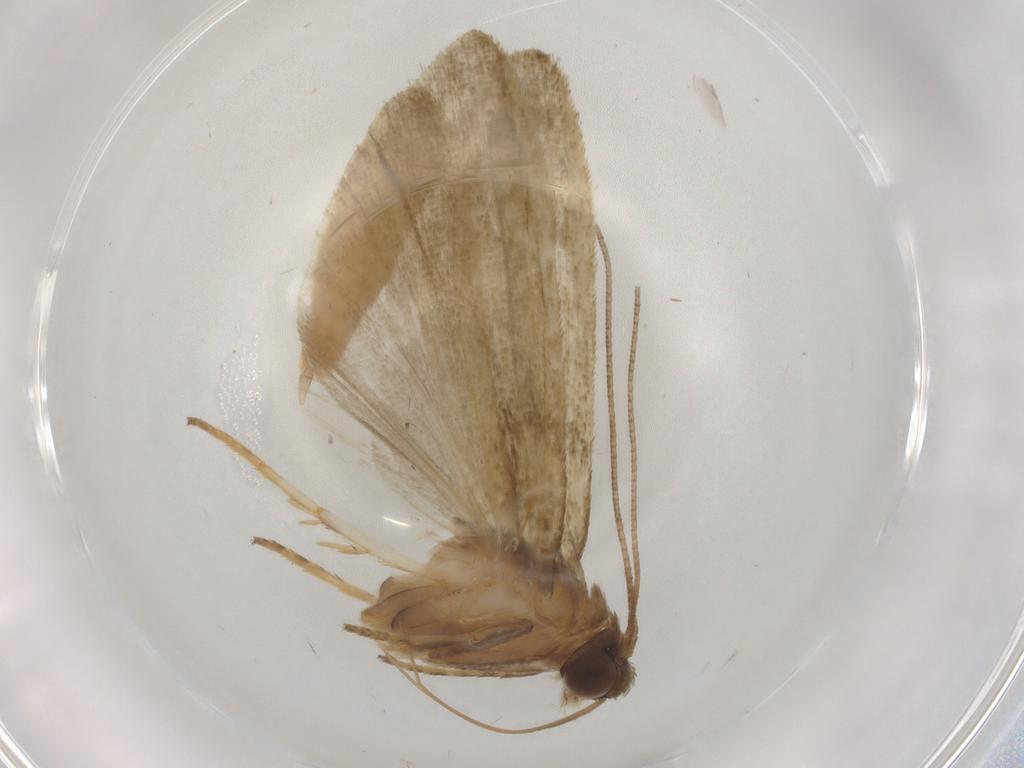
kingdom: Animalia
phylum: Arthropoda
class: Insecta
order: Lepidoptera
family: Noctuidae
